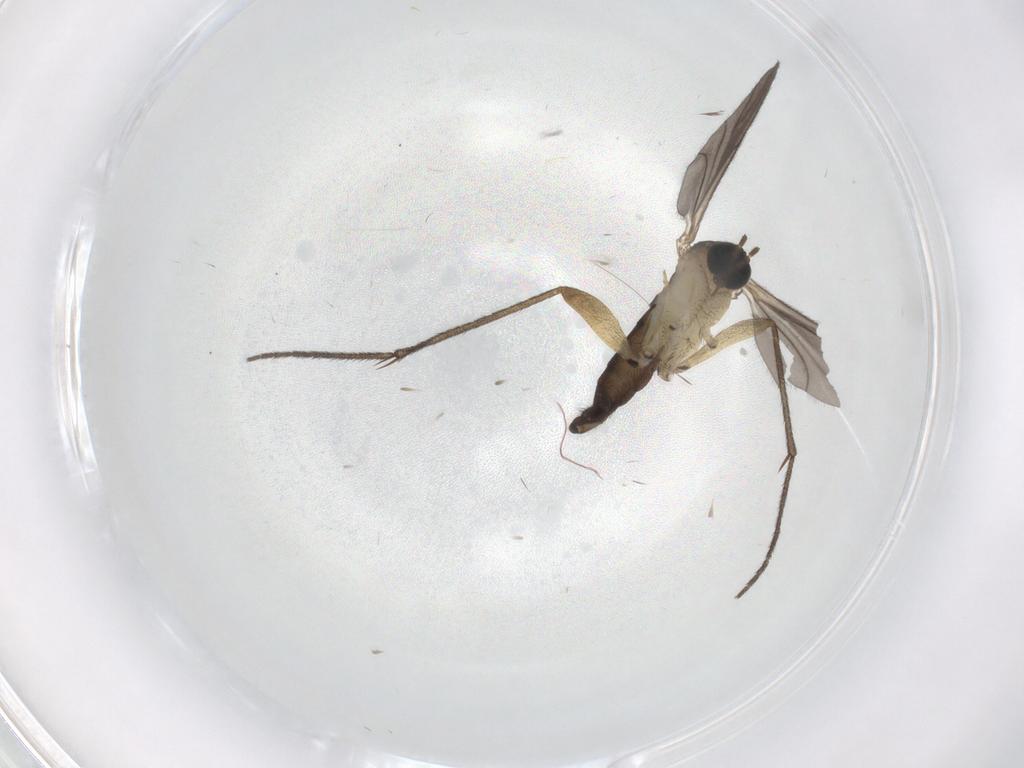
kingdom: Animalia
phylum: Arthropoda
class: Insecta
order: Diptera
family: Sciaridae
